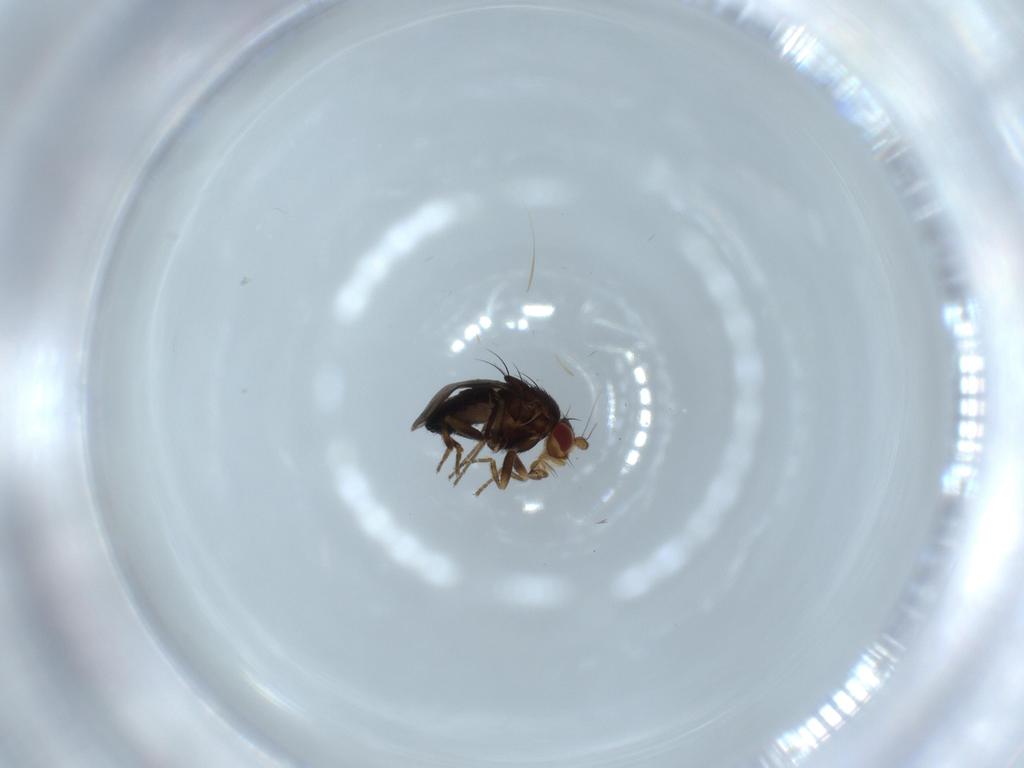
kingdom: Animalia
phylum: Arthropoda
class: Insecta
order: Diptera
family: Sphaeroceridae
